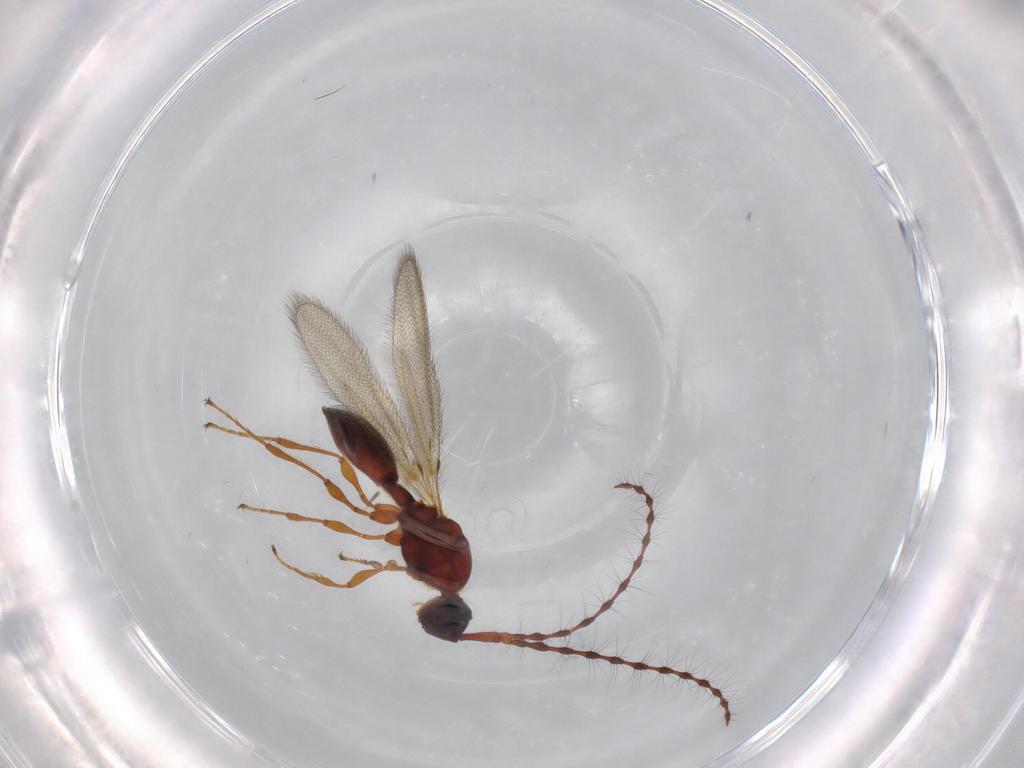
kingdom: Animalia
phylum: Arthropoda
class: Insecta
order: Hymenoptera
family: Diapriidae
